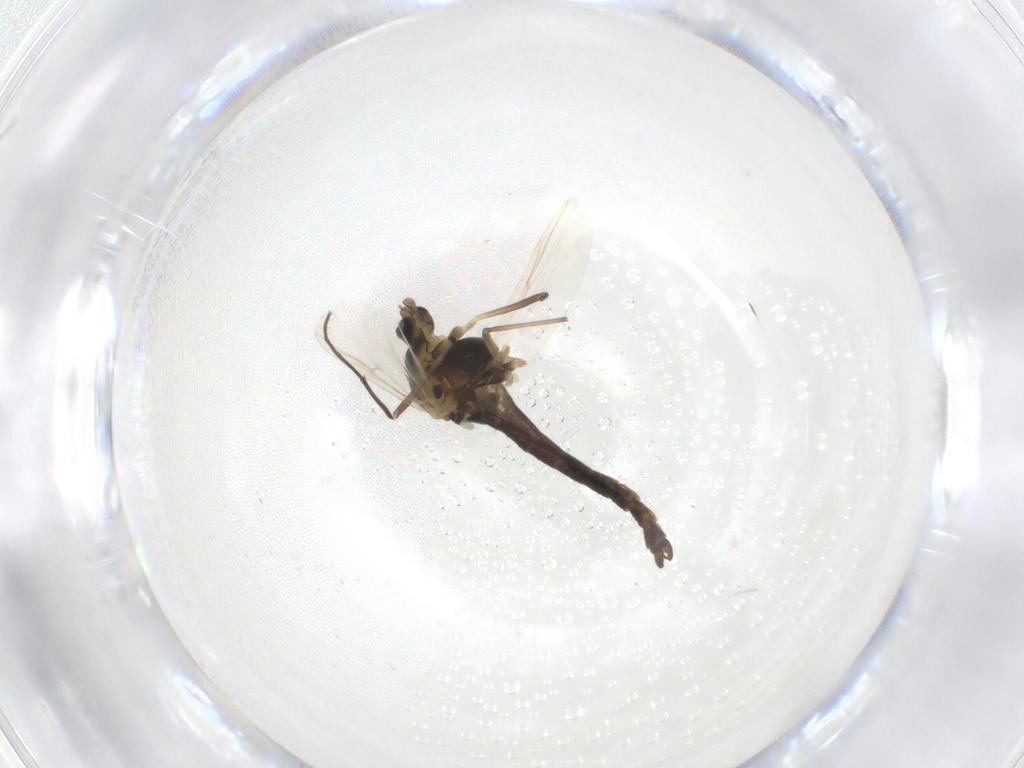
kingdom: Animalia
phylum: Arthropoda
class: Insecta
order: Diptera
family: Chironomidae
